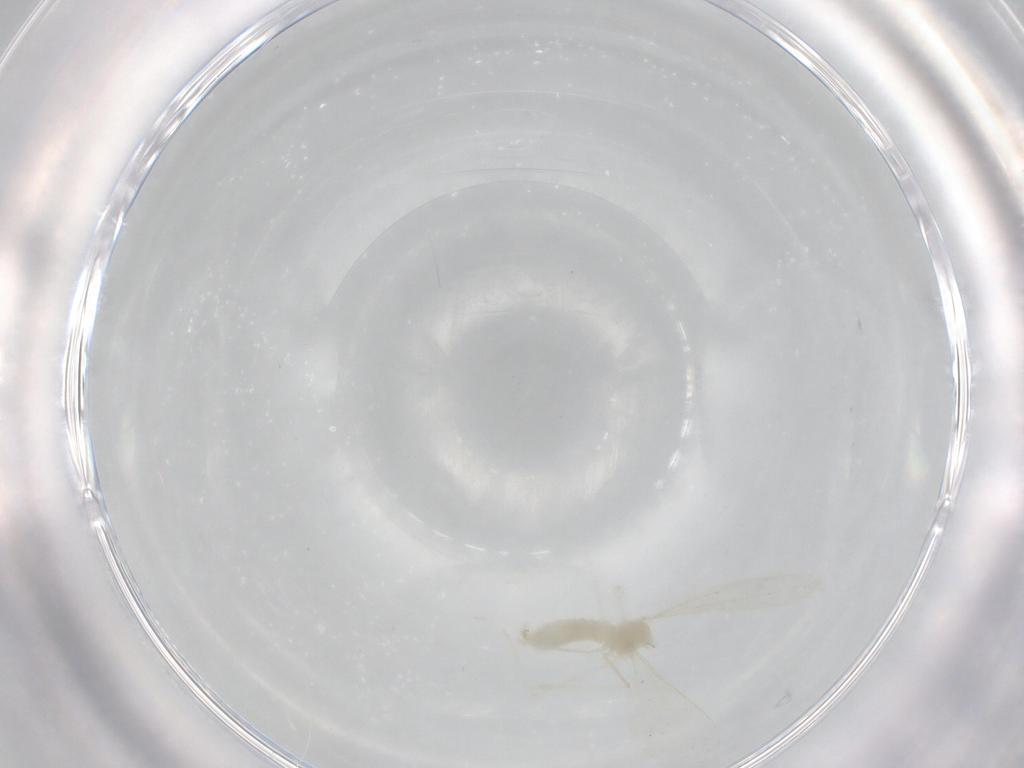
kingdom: Animalia
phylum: Arthropoda
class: Insecta
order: Diptera
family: Cecidomyiidae
